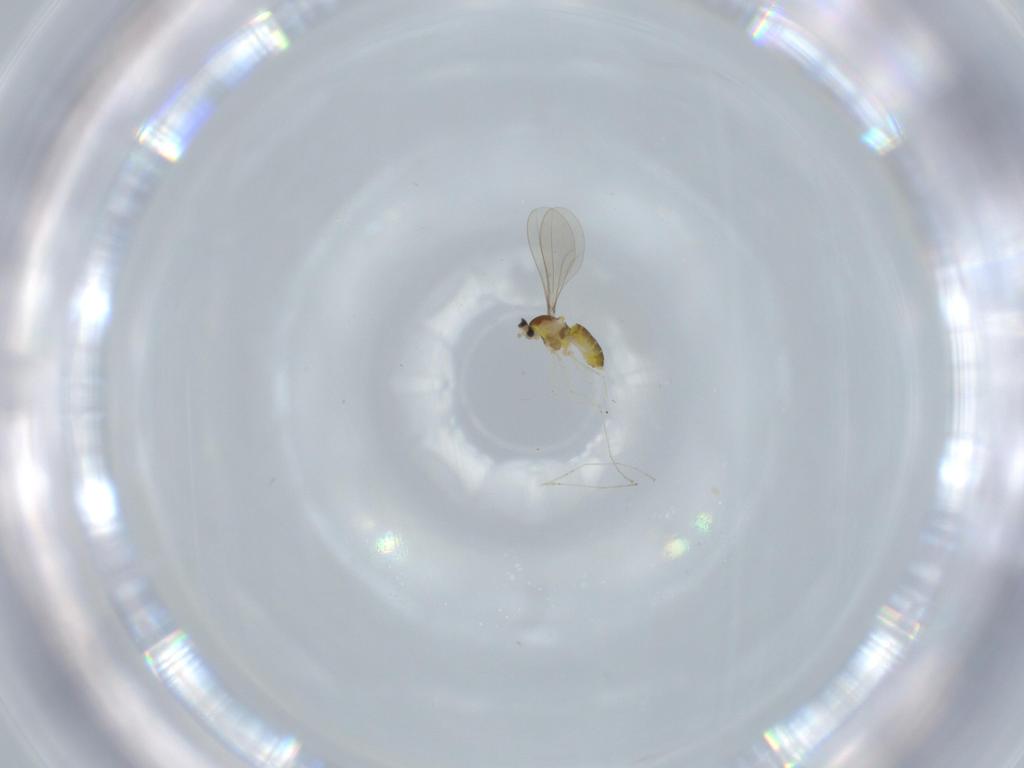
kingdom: Animalia
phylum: Arthropoda
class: Insecta
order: Diptera
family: Cecidomyiidae
